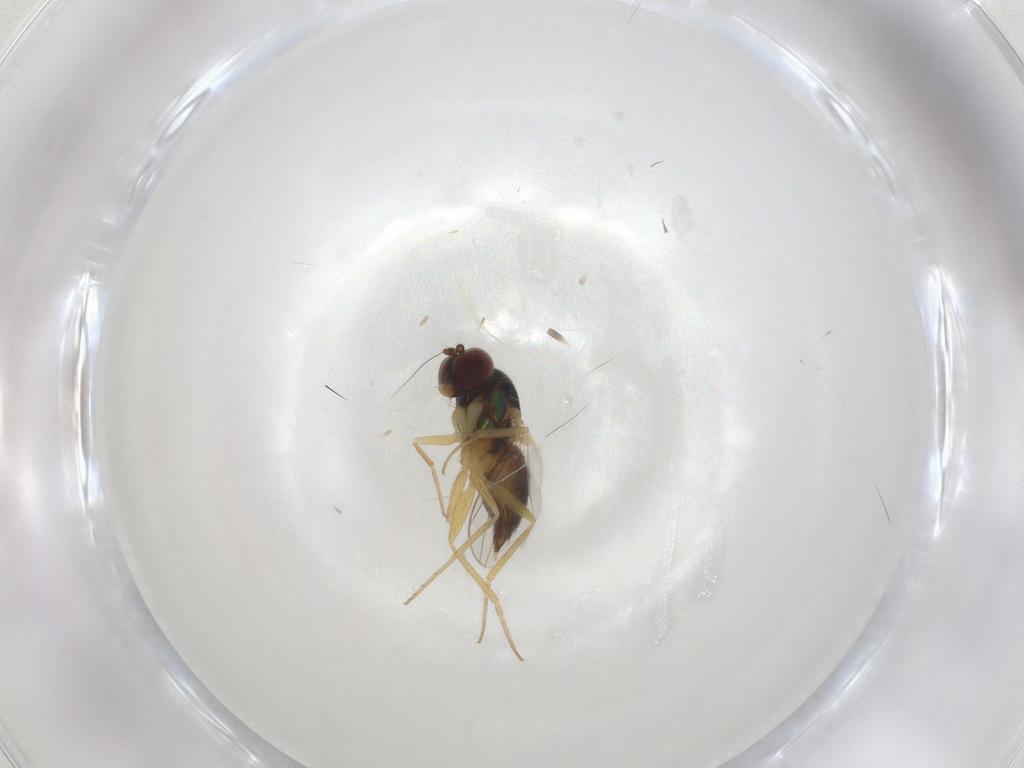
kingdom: Animalia
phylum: Arthropoda
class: Insecta
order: Diptera
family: Dolichopodidae
